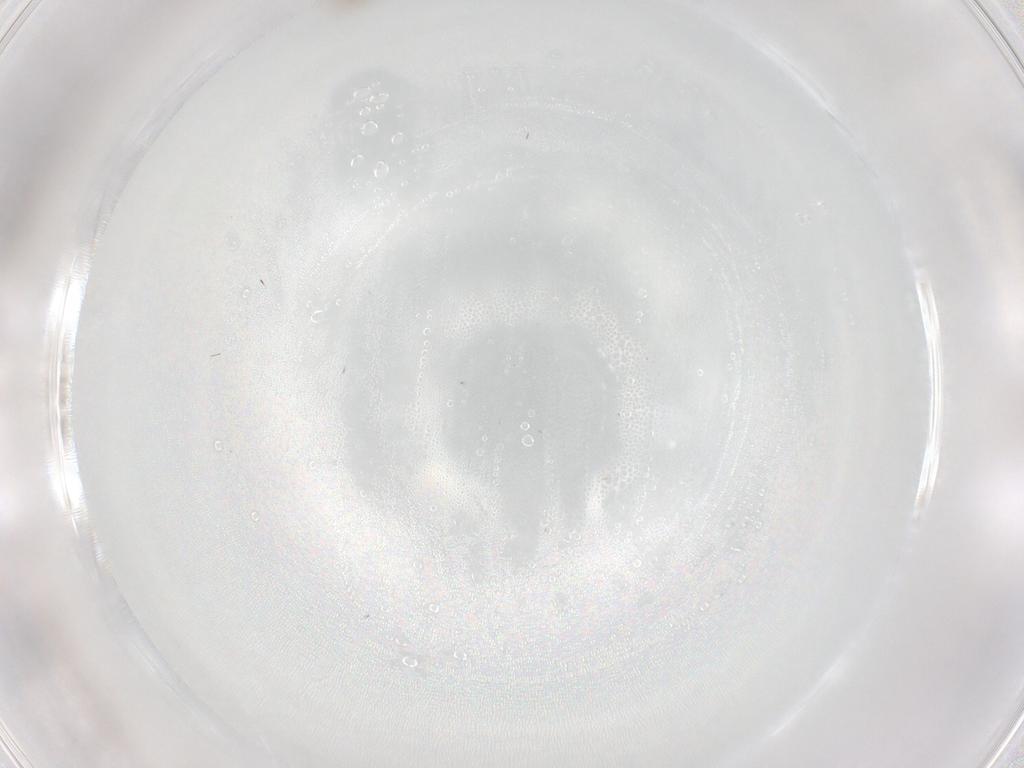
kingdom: Animalia
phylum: Arthropoda
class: Insecta
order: Diptera
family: Cecidomyiidae
